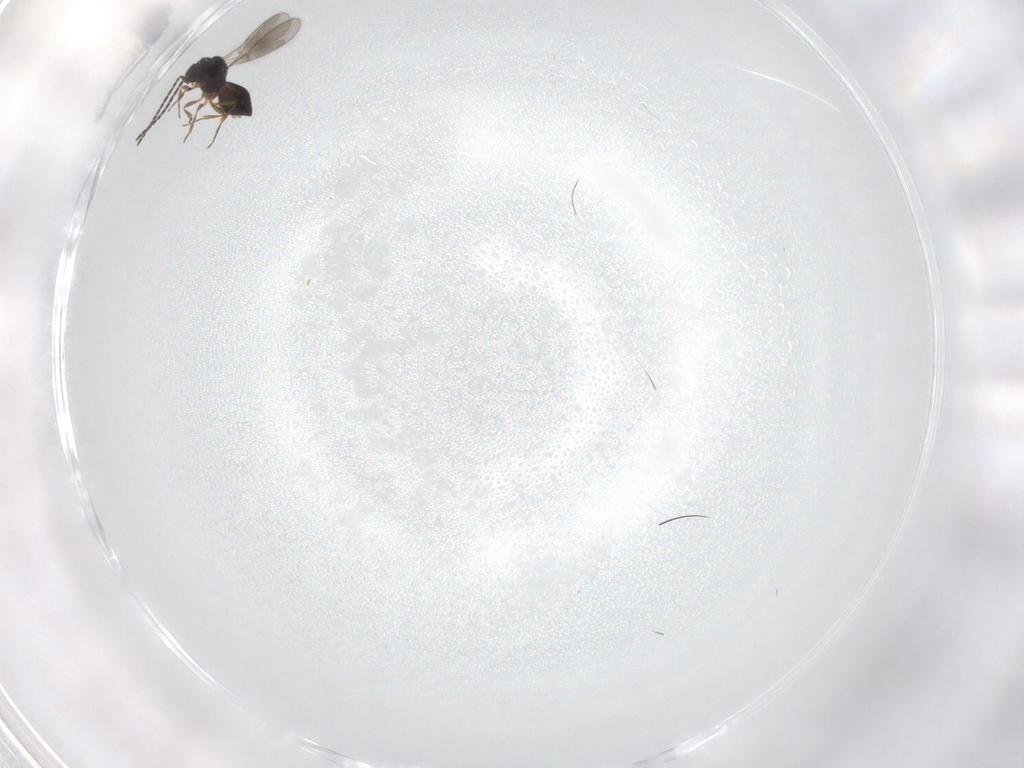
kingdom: Animalia
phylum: Arthropoda
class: Insecta
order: Hymenoptera
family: Scelionidae
